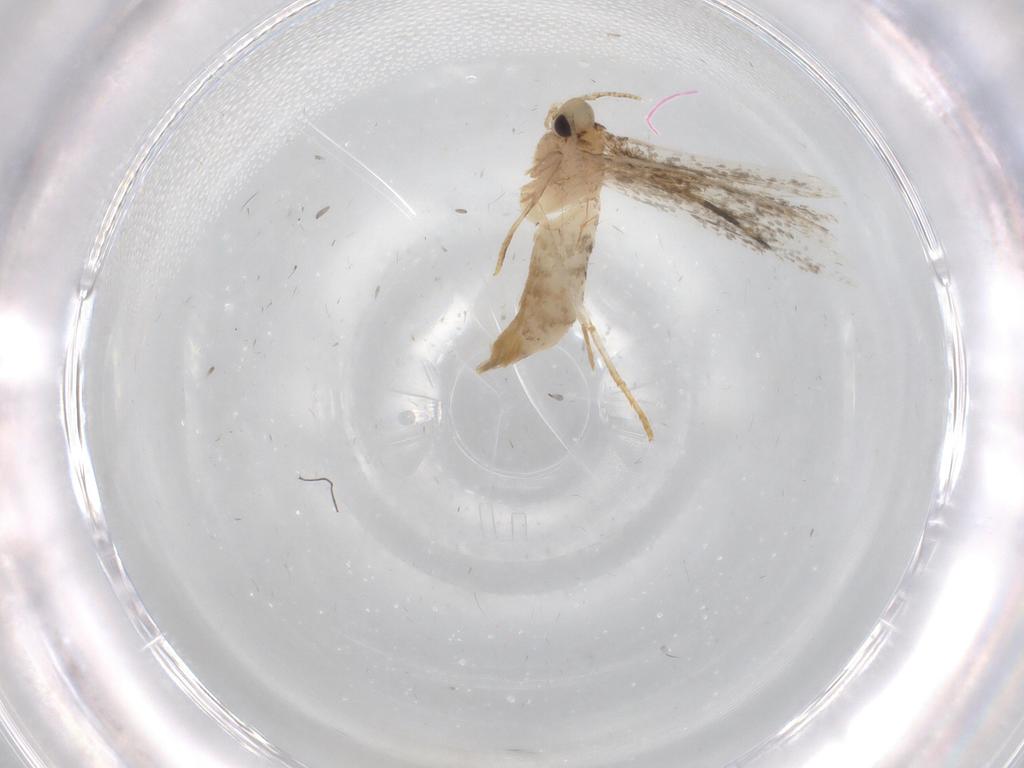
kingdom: Animalia
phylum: Arthropoda
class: Insecta
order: Lepidoptera
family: Tineidae
